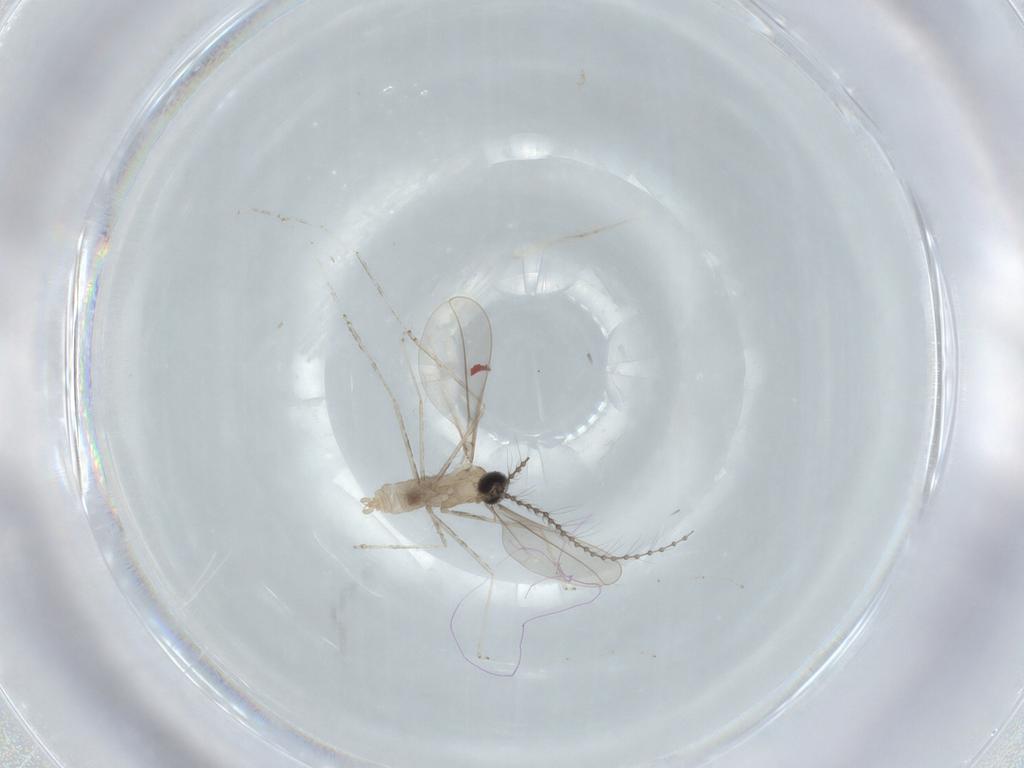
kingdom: Animalia
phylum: Arthropoda
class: Insecta
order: Diptera
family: Chironomidae
